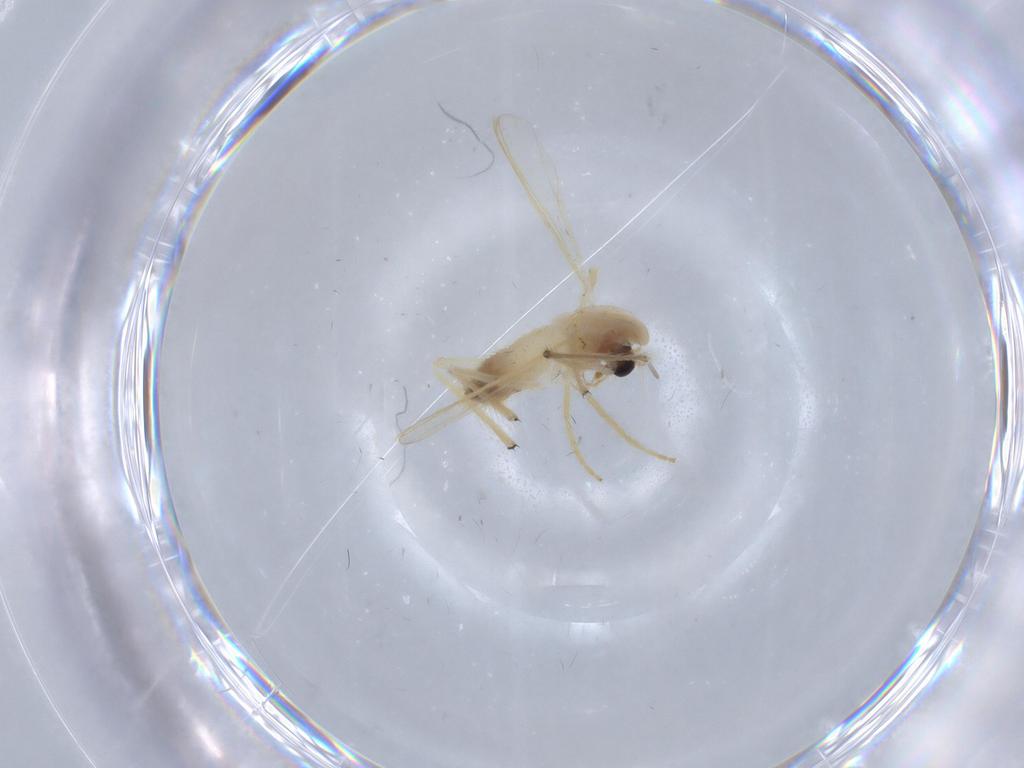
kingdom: Animalia
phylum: Arthropoda
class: Insecta
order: Diptera
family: Chironomidae
